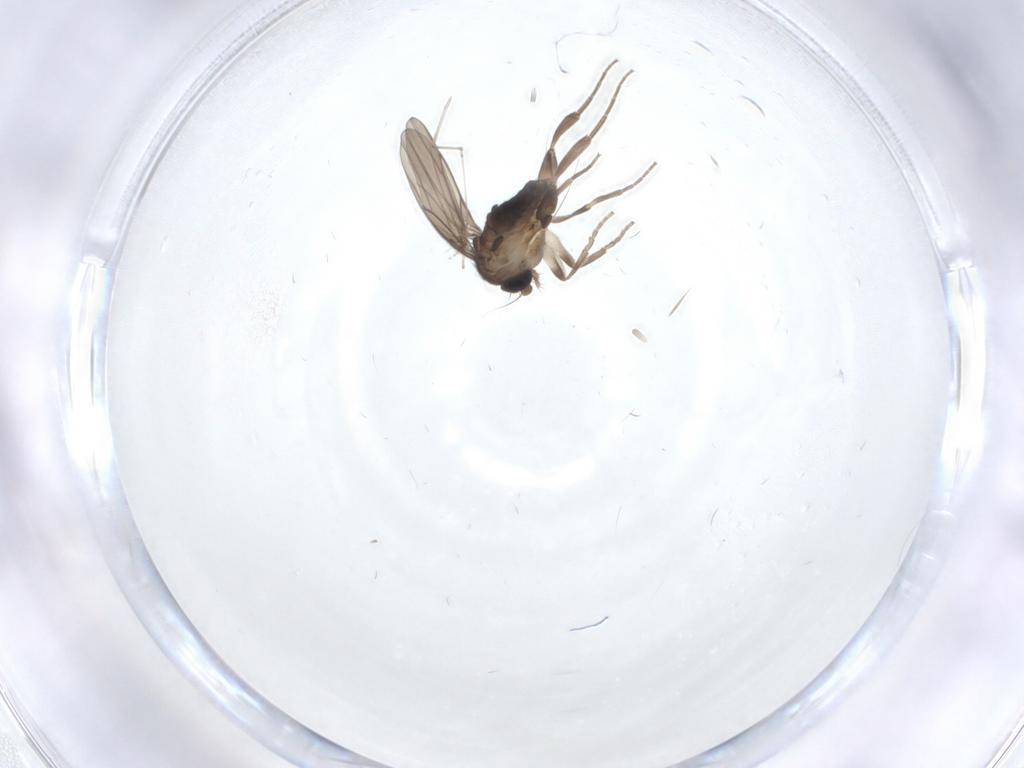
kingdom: Animalia
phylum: Arthropoda
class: Insecta
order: Diptera
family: Cecidomyiidae
